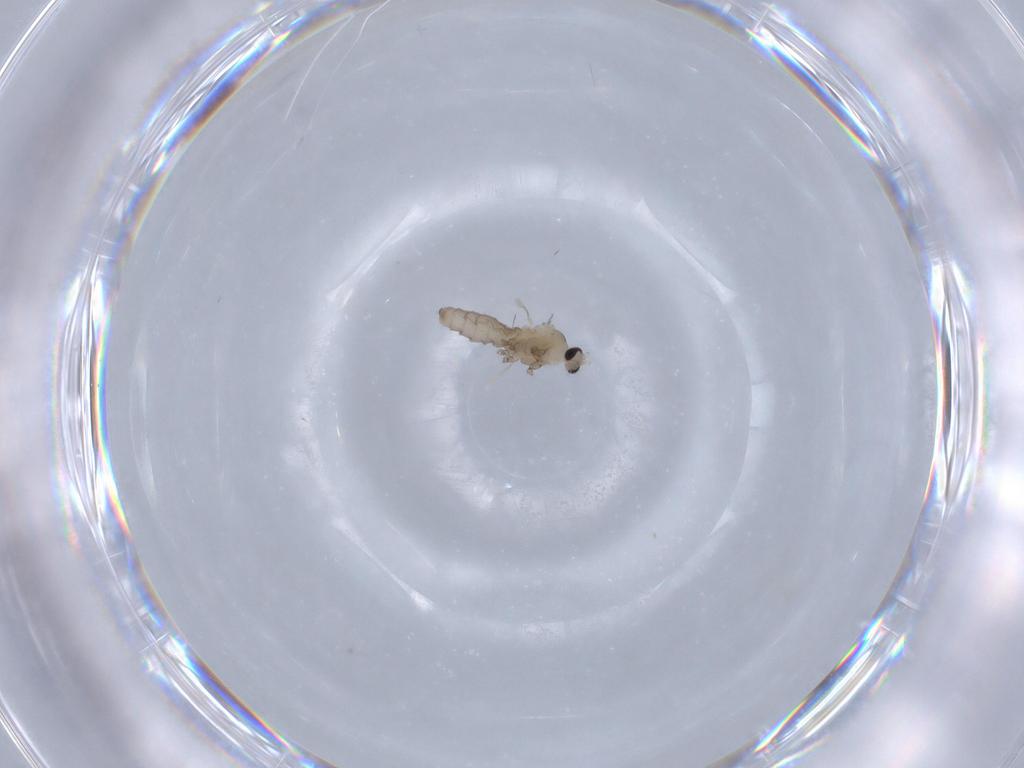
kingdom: Animalia
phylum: Arthropoda
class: Insecta
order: Diptera
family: Cecidomyiidae
